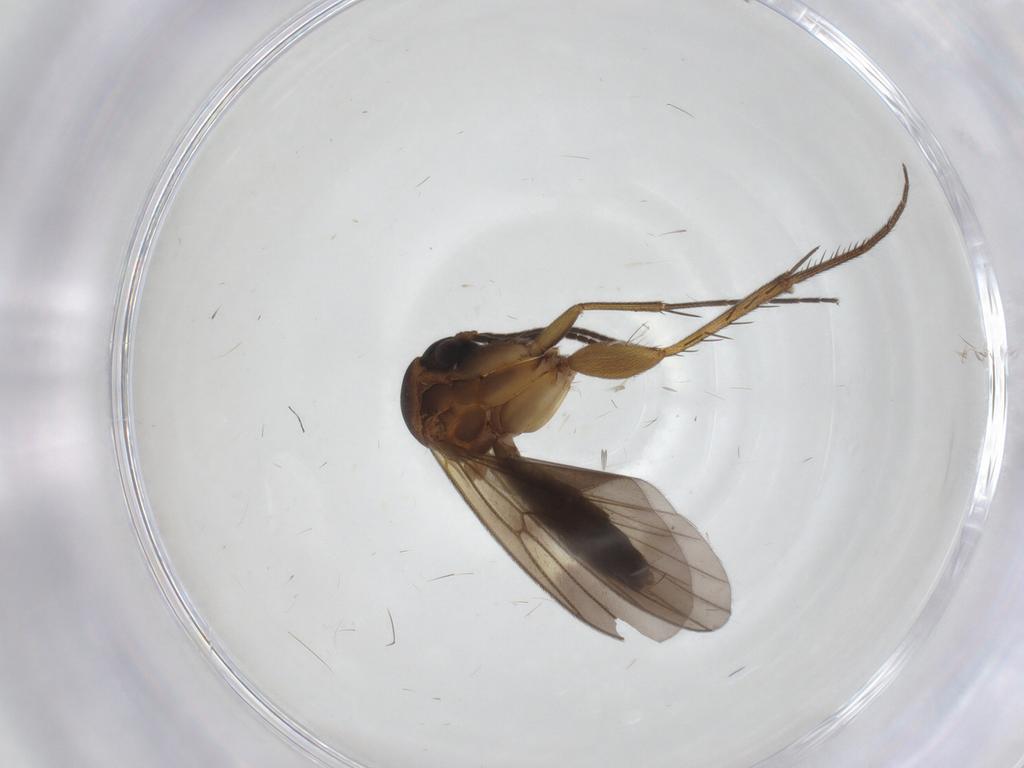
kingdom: Animalia
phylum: Arthropoda
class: Insecta
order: Diptera
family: Mycetophilidae
